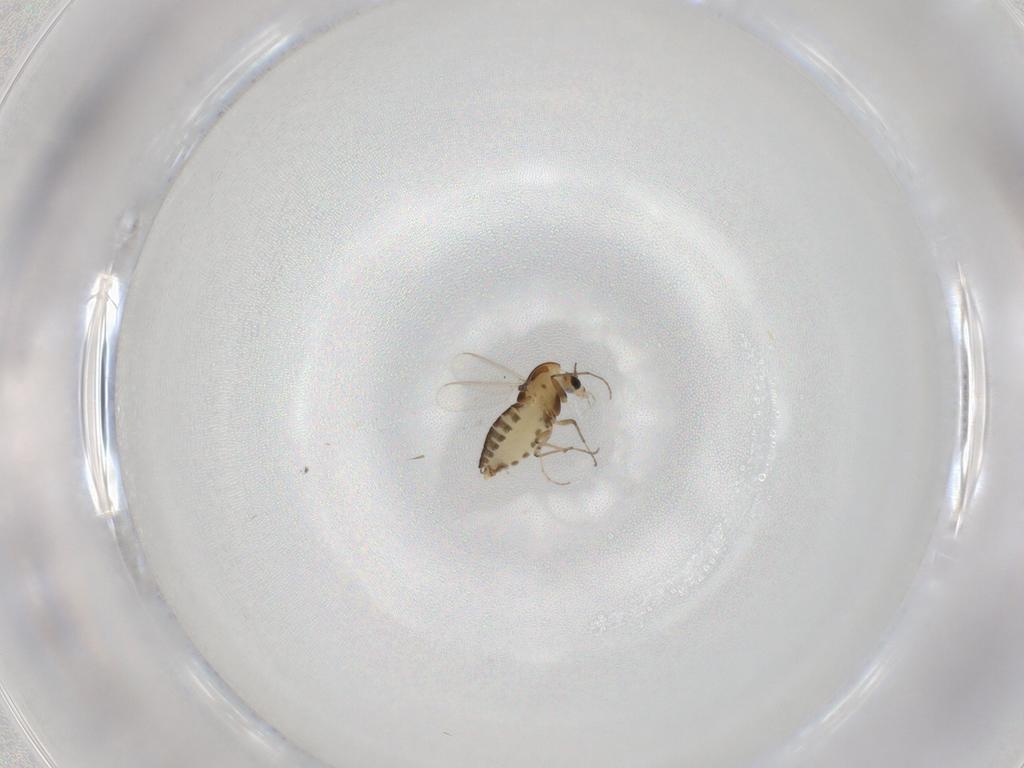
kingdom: Animalia
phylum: Arthropoda
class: Insecta
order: Diptera
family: Chironomidae
